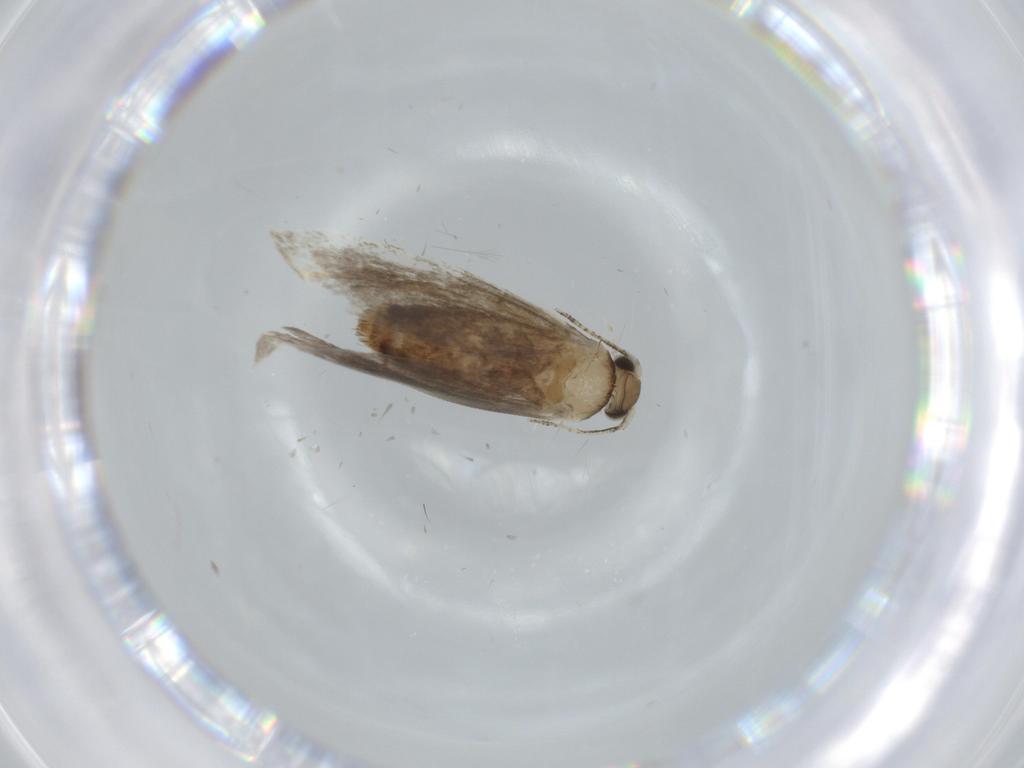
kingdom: Animalia
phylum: Arthropoda
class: Insecta
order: Lepidoptera
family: Tineidae
